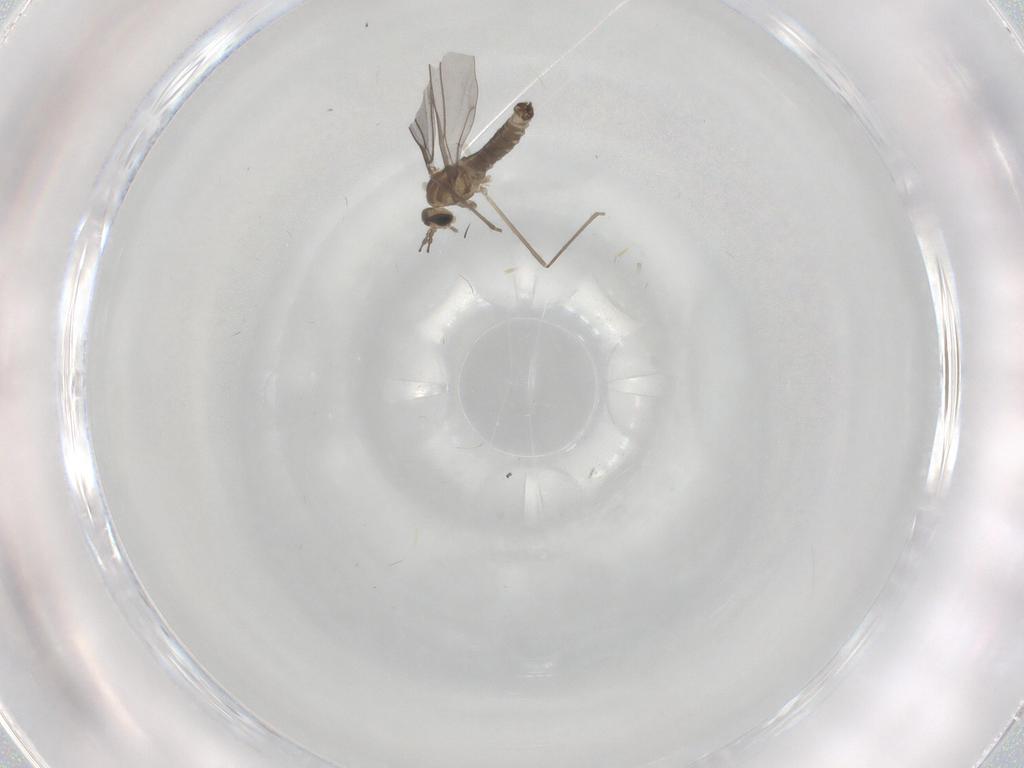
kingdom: Animalia
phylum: Arthropoda
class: Insecta
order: Diptera
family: Cecidomyiidae
